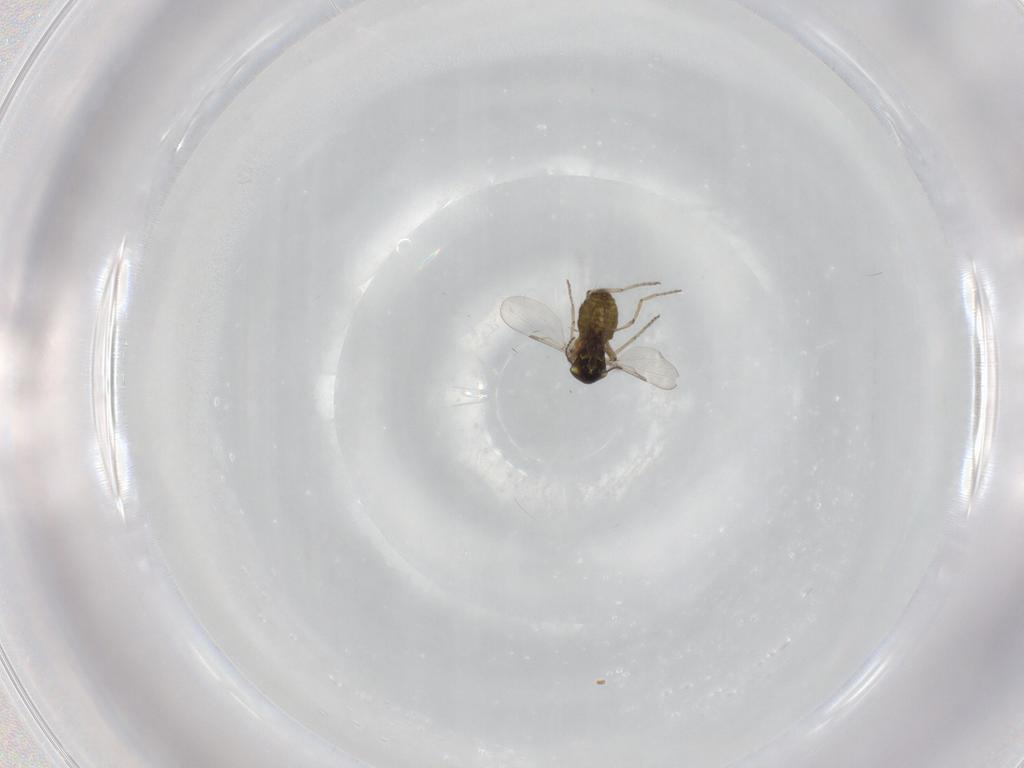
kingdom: Animalia
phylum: Arthropoda
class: Insecta
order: Diptera
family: Ceratopogonidae
